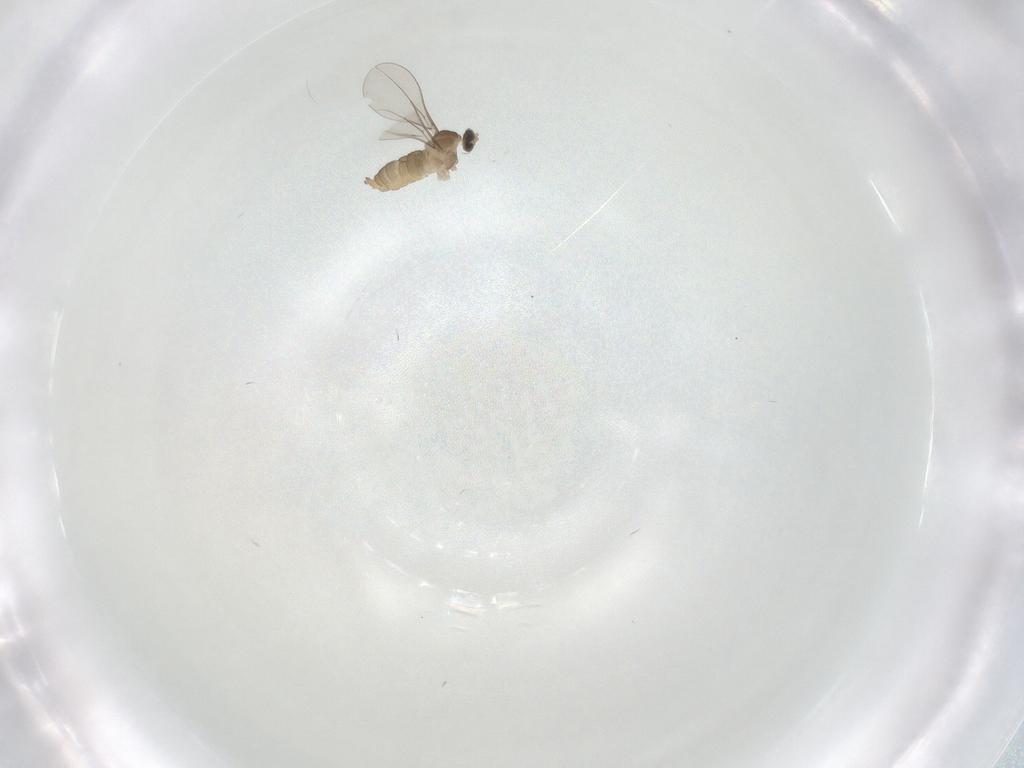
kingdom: Animalia
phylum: Arthropoda
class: Insecta
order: Diptera
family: Cecidomyiidae
